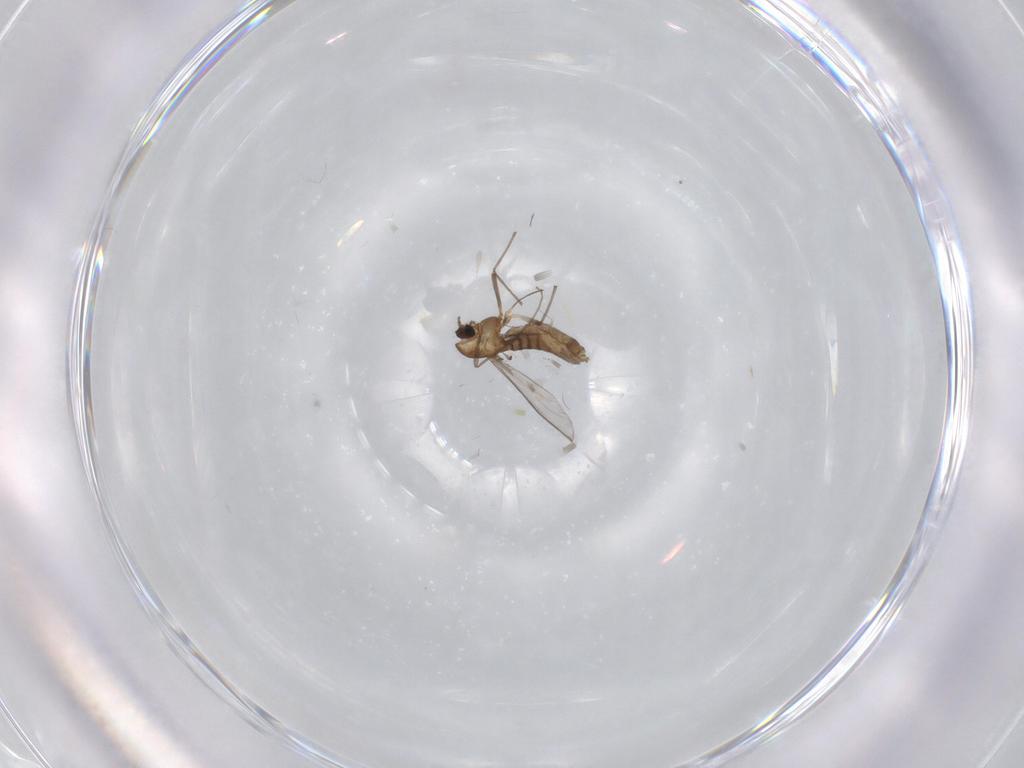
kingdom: Animalia
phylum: Arthropoda
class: Insecta
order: Diptera
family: Chironomidae
